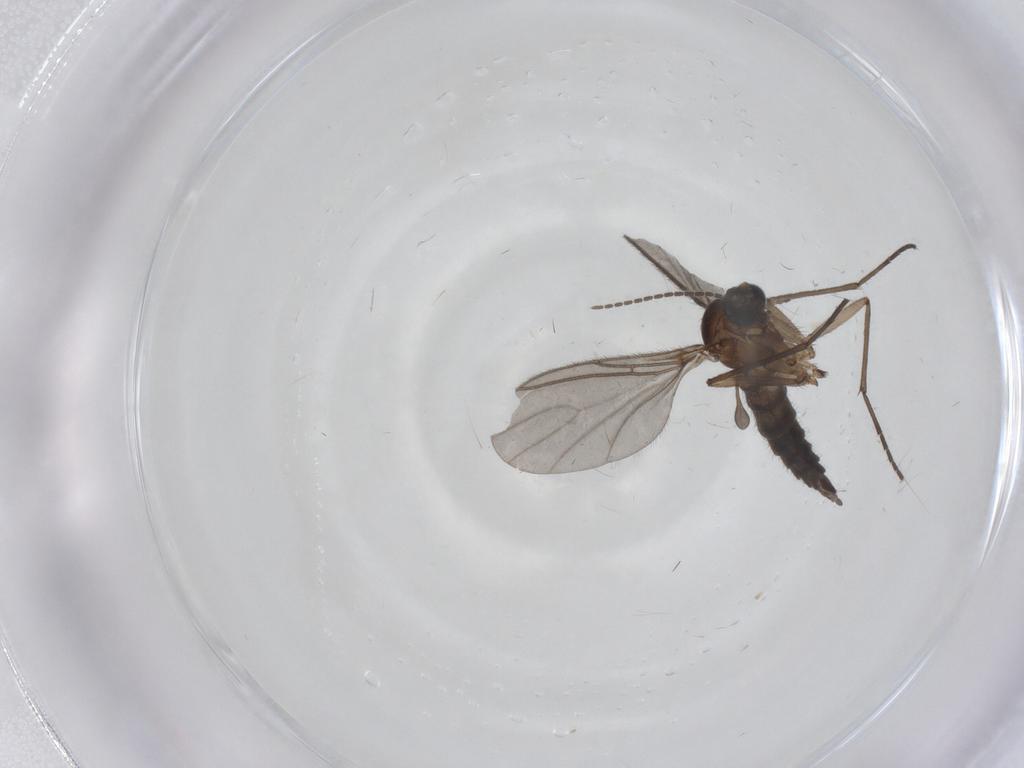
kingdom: Animalia
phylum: Arthropoda
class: Insecta
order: Diptera
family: Sciaridae
